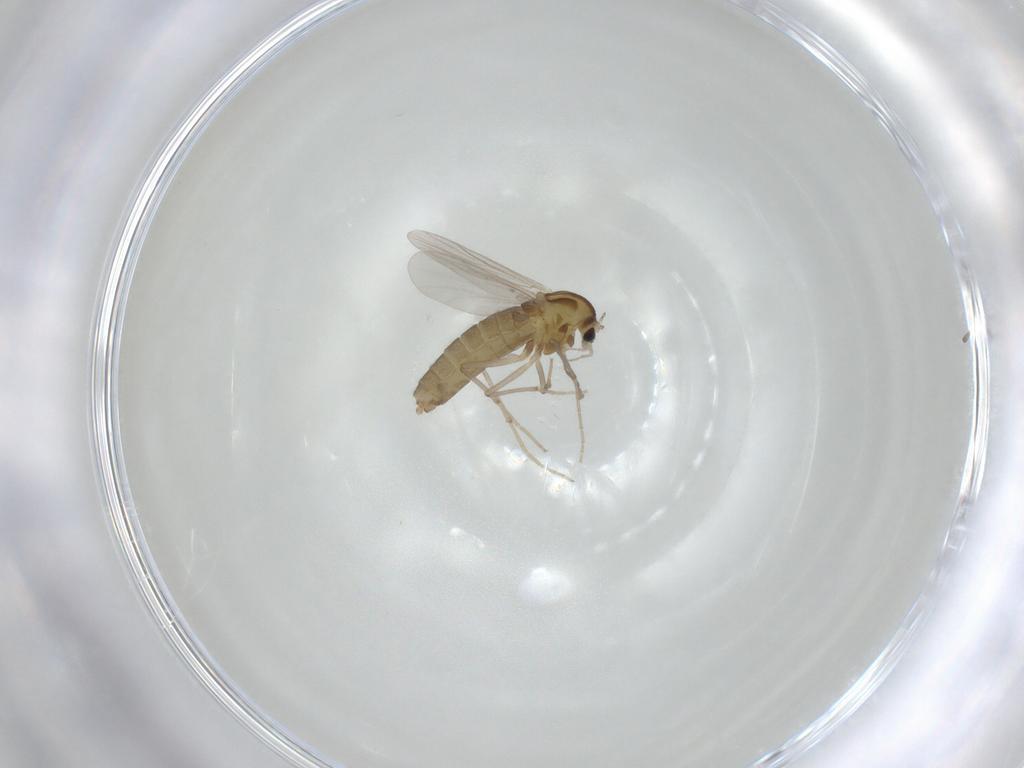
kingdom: Animalia
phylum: Arthropoda
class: Insecta
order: Diptera
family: Chironomidae
